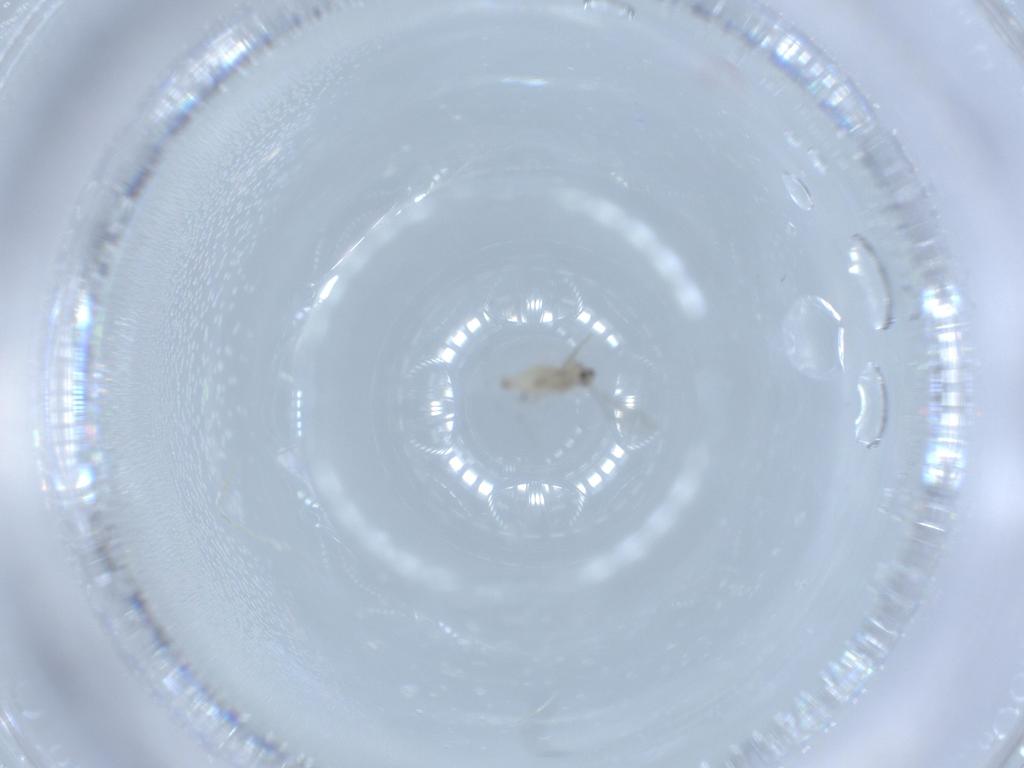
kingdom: Animalia
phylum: Arthropoda
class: Insecta
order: Diptera
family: Cecidomyiidae
